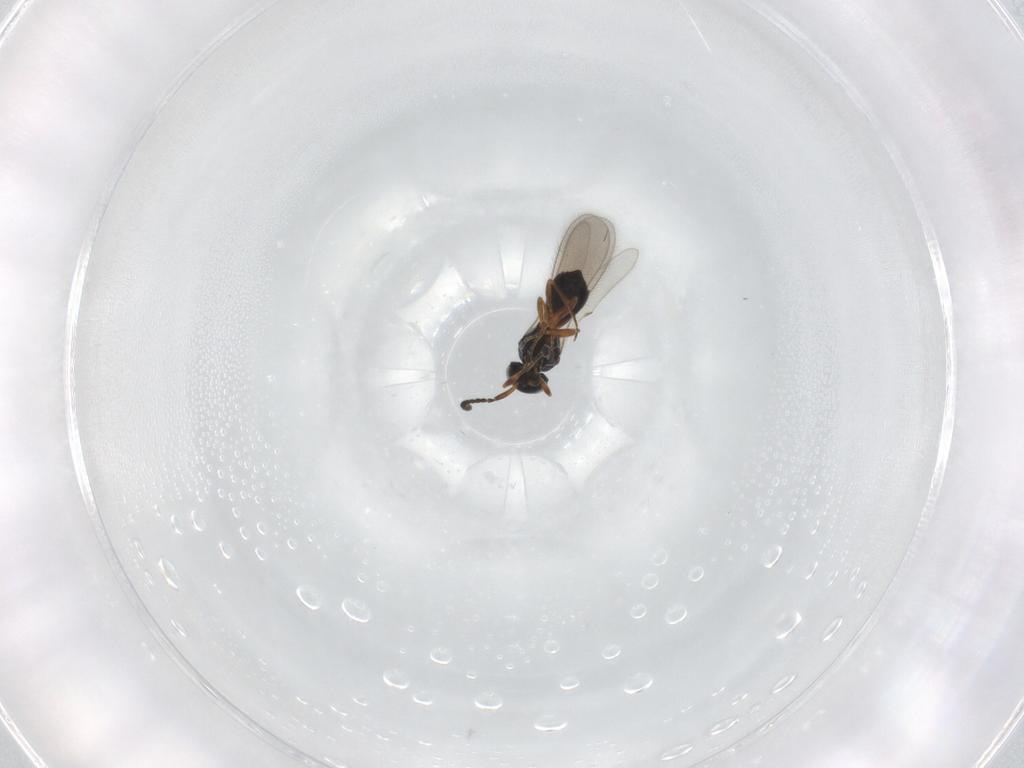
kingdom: Animalia
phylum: Arthropoda
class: Insecta
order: Hymenoptera
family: Scelionidae
